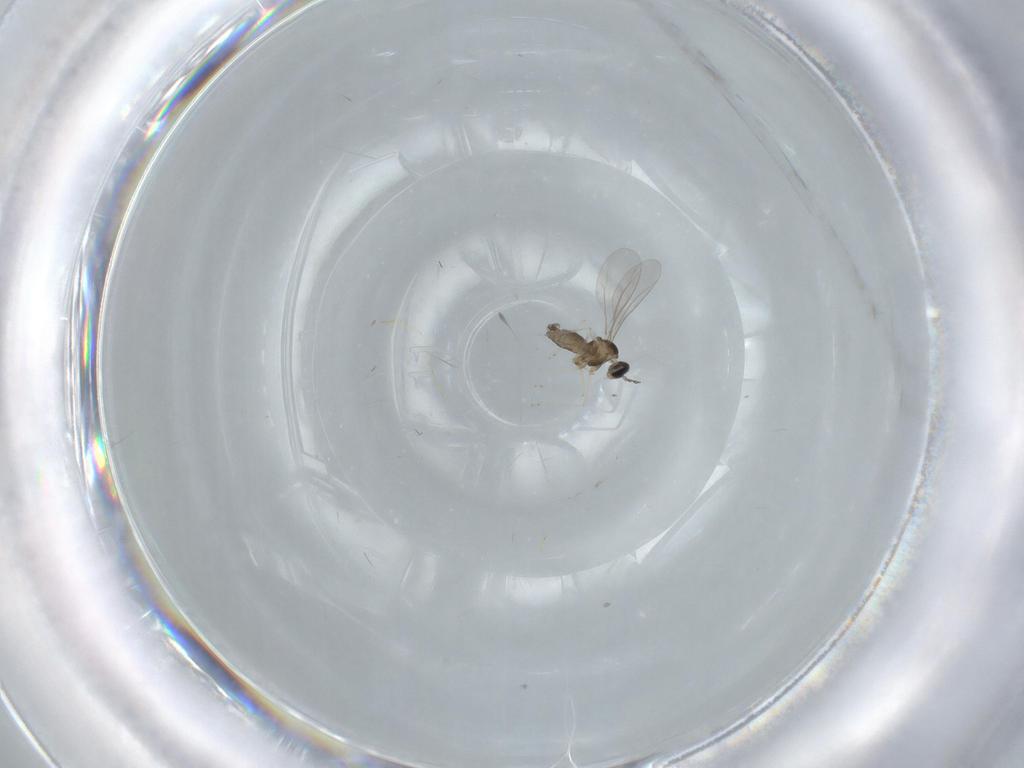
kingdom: Animalia
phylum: Arthropoda
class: Insecta
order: Diptera
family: Cecidomyiidae
